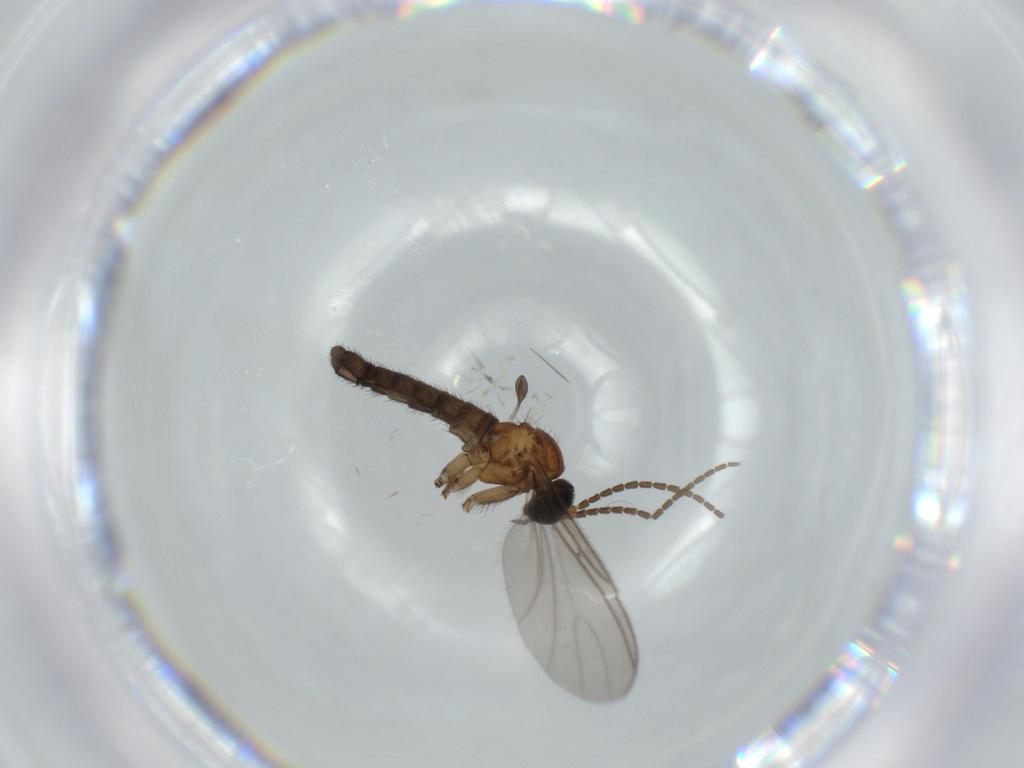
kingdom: Animalia
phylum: Arthropoda
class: Insecta
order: Diptera
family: Sciaridae
